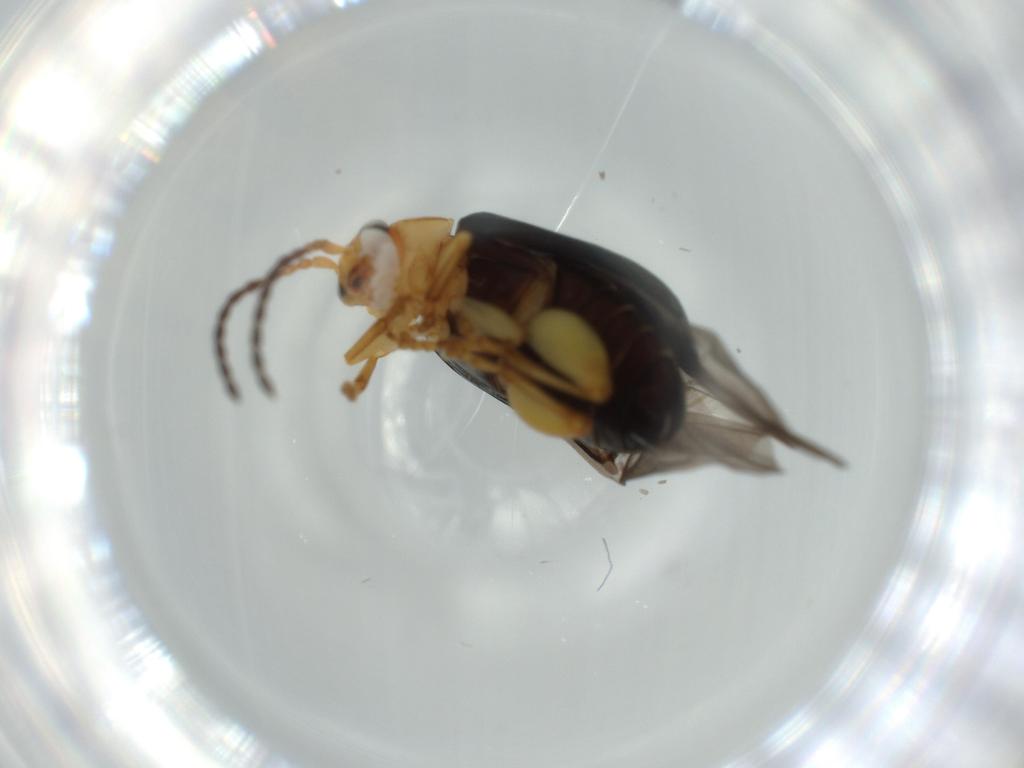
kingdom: Animalia
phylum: Arthropoda
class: Insecta
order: Coleoptera
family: Chrysomelidae
